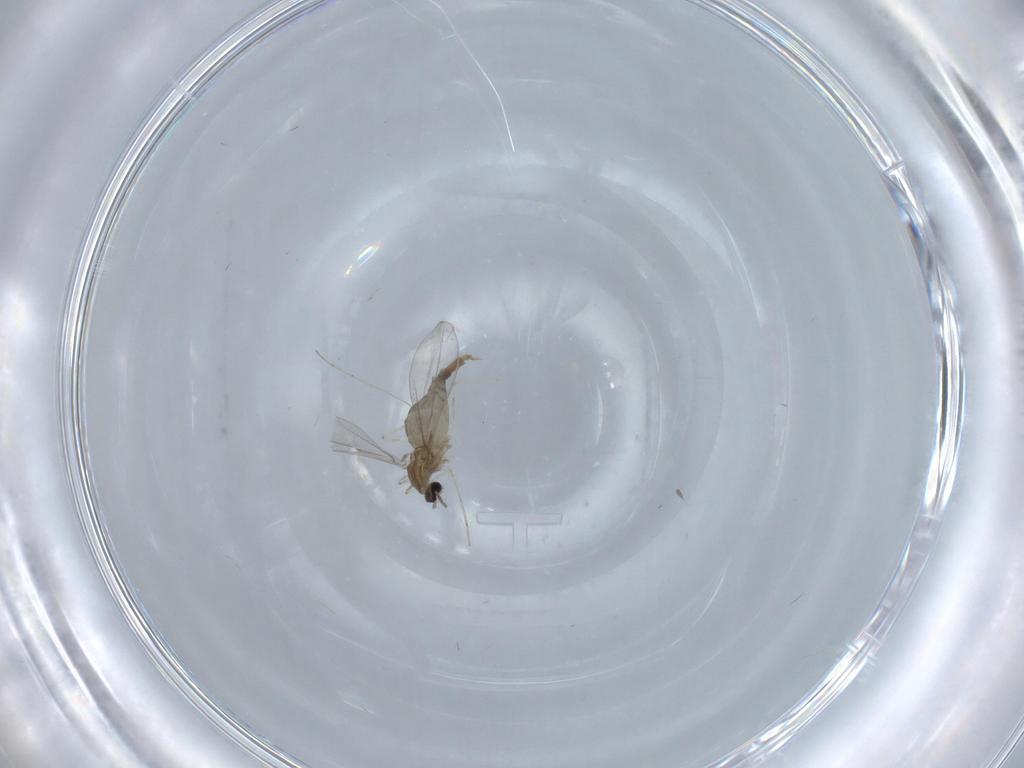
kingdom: Animalia
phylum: Arthropoda
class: Insecta
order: Diptera
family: Cecidomyiidae
